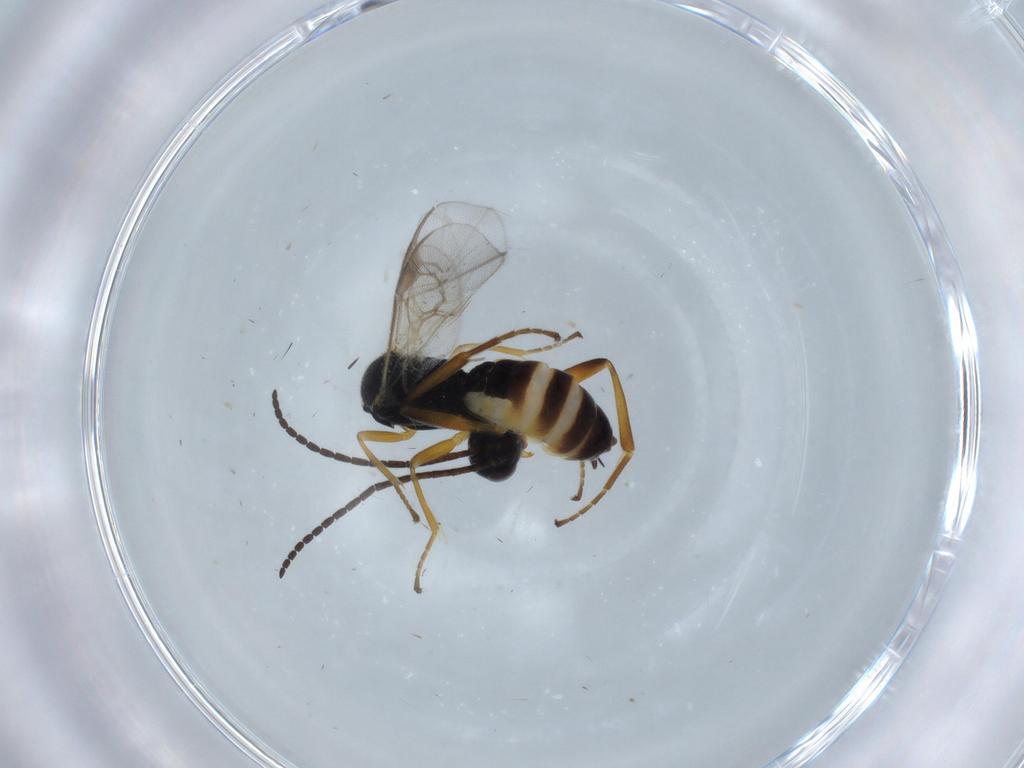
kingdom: Animalia
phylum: Arthropoda
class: Insecta
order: Hymenoptera
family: Braconidae
